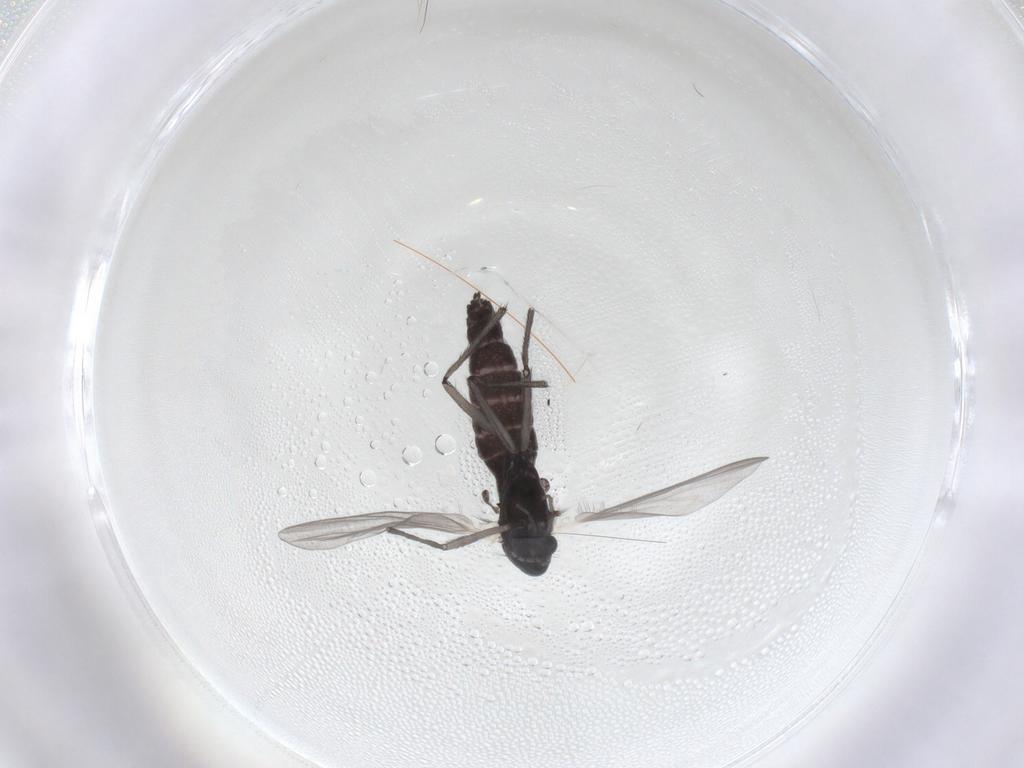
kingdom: Animalia
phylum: Arthropoda
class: Insecta
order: Diptera
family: Chironomidae
